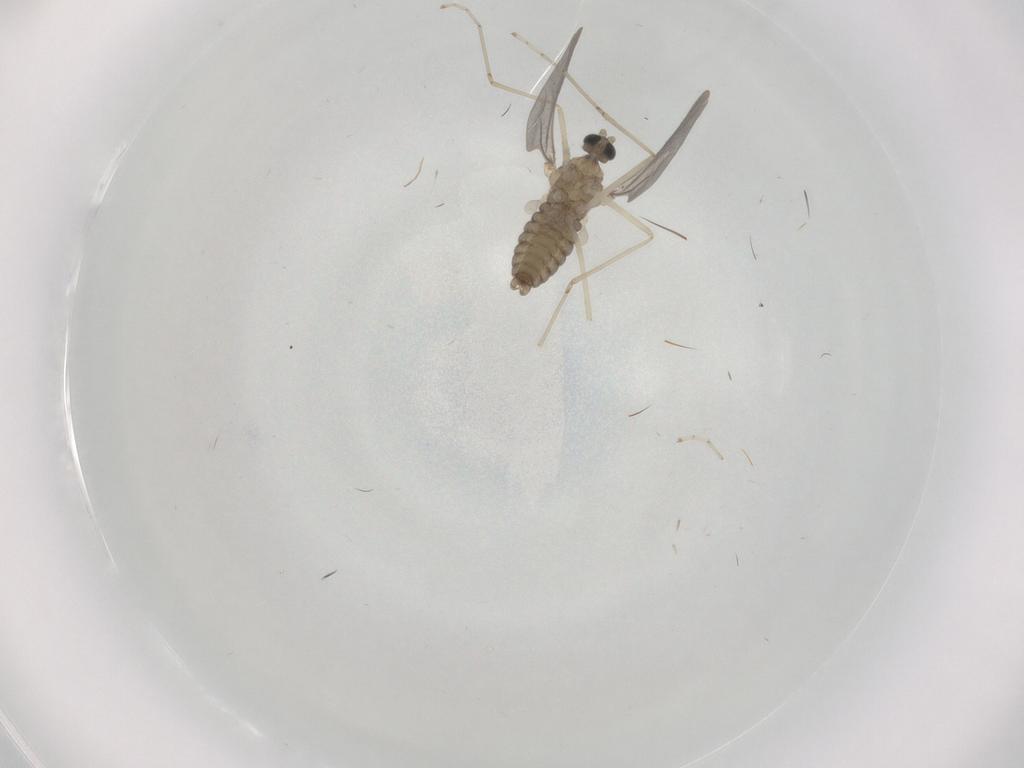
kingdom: Animalia
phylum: Arthropoda
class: Insecta
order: Diptera
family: Cecidomyiidae
